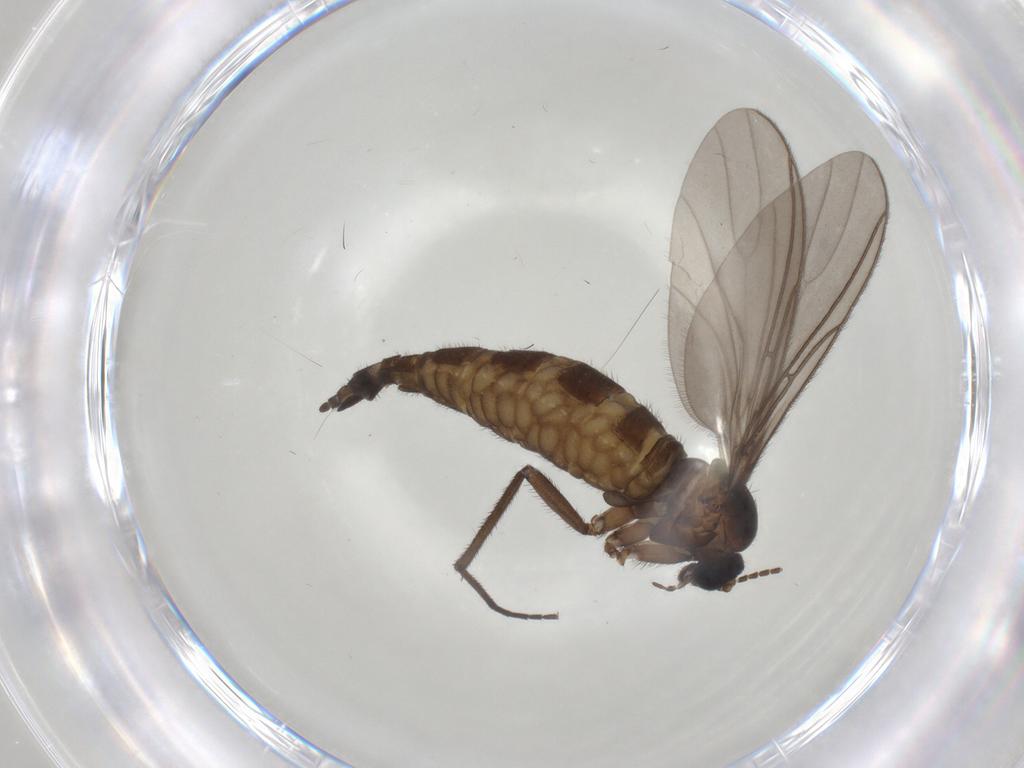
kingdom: Animalia
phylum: Arthropoda
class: Insecta
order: Diptera
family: Sciaridae
